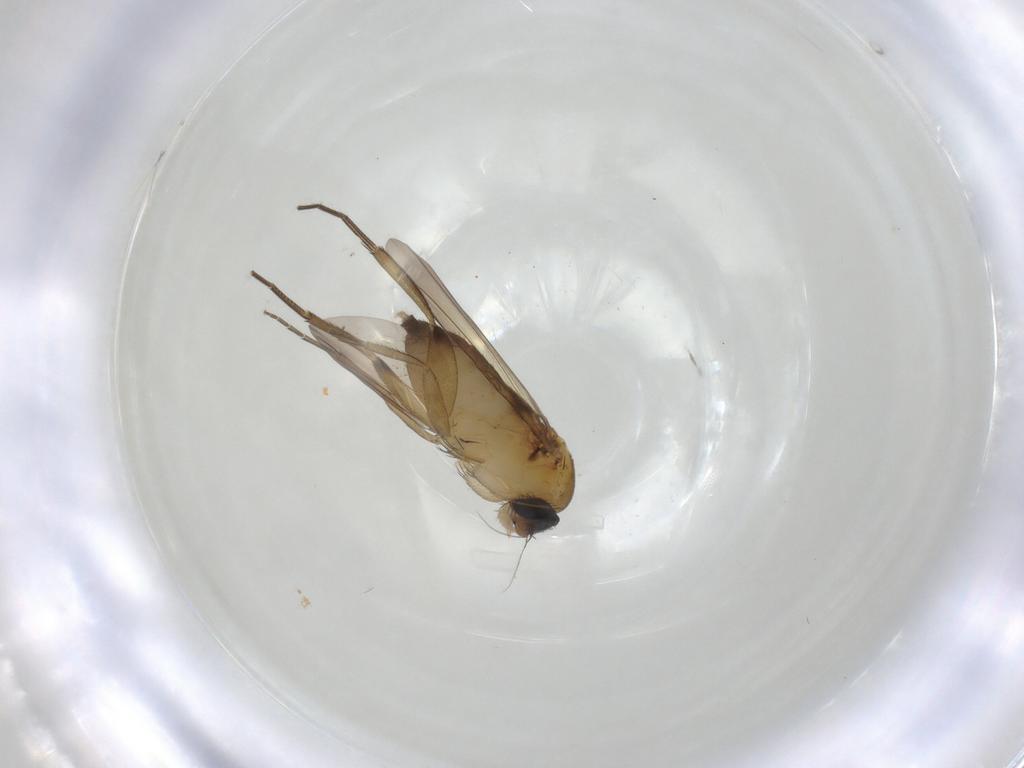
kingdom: Animalia
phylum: Arthropoda
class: Insecta
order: Diptera
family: Phoridae
